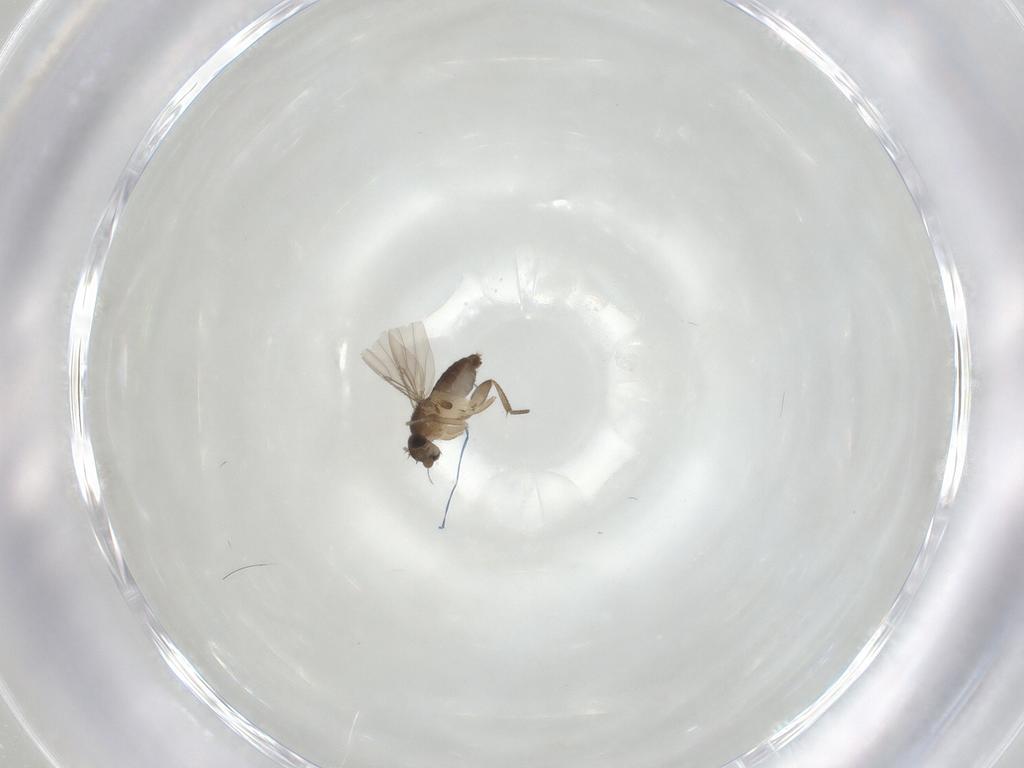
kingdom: Animalia
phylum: Arthropoda
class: Insecta
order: Diptera
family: Phoridae
